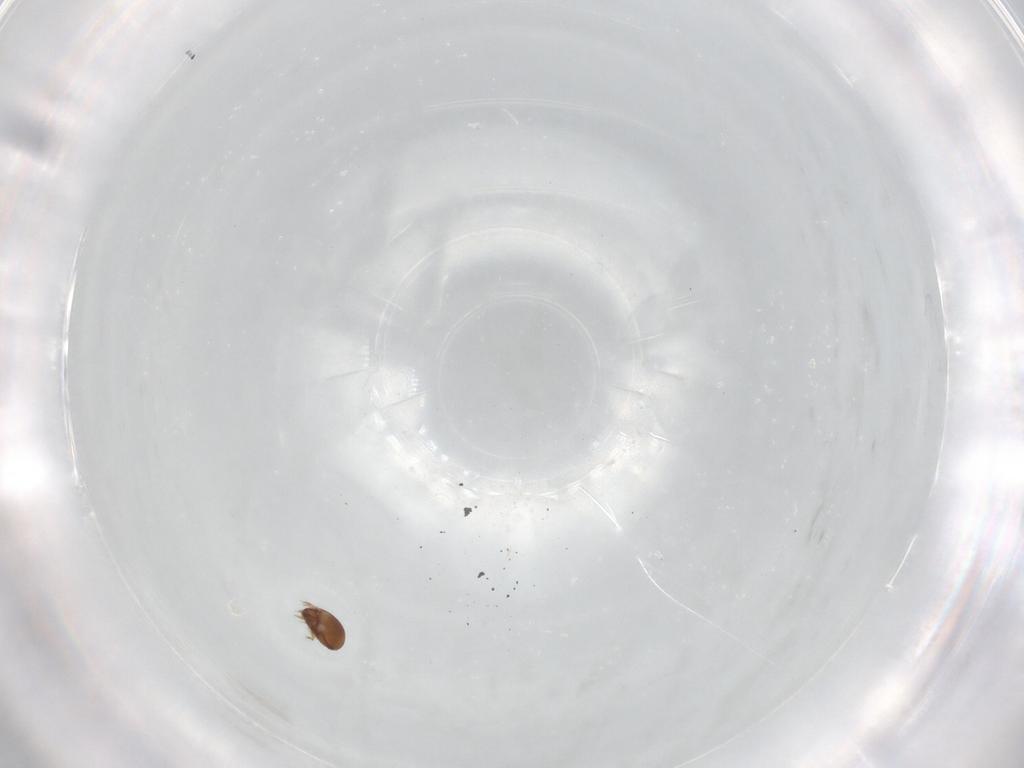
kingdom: Animalia
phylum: Arthropoda
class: Arachnida
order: Sarcoptiformes
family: Tegoribatidae
